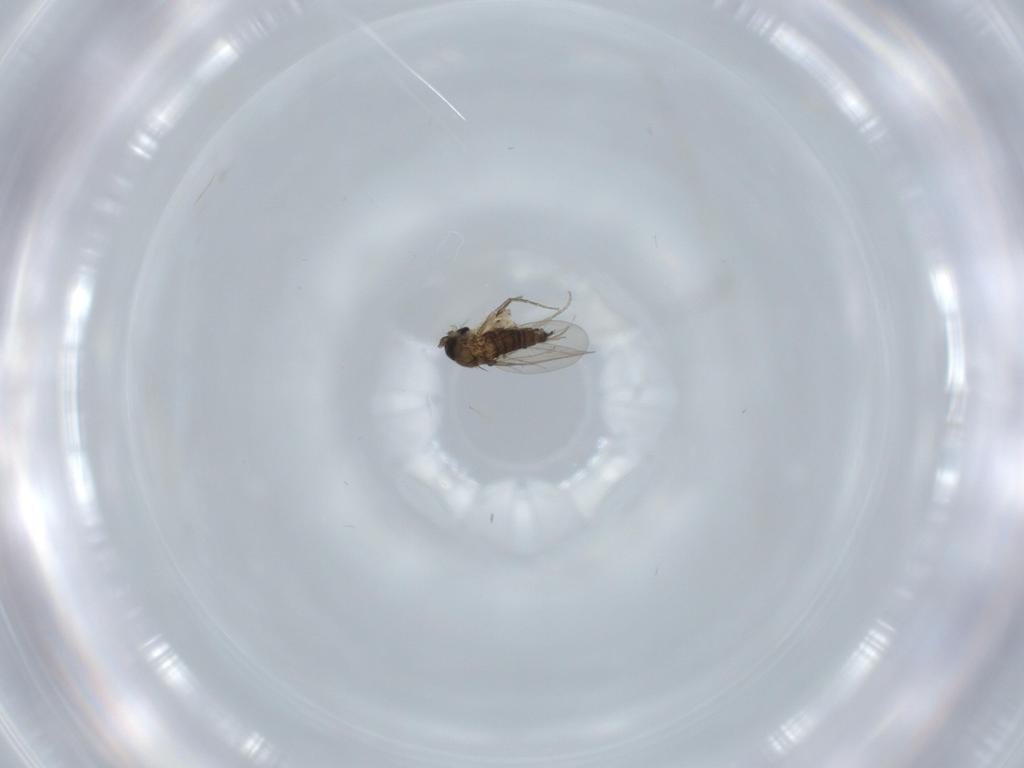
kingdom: Animalia
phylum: Arthropoda
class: Insecta
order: Diptera
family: Phoridae
